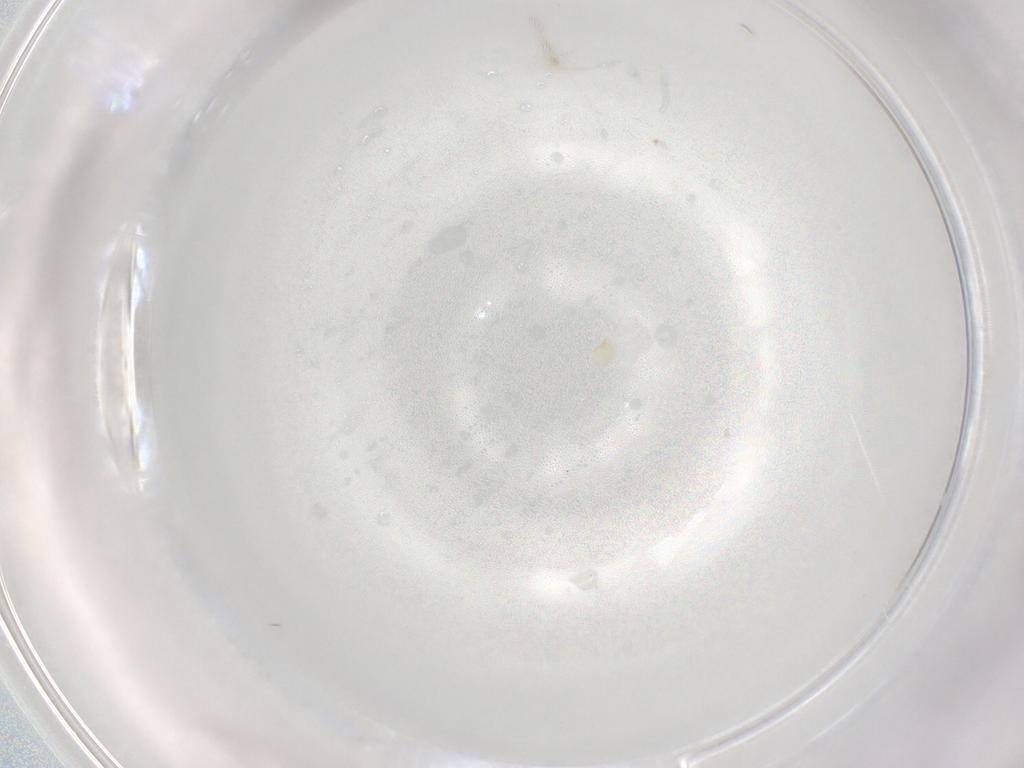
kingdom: Animalia
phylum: Arthropoda
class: Insecta
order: Diptera
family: Cecidomyiidae
